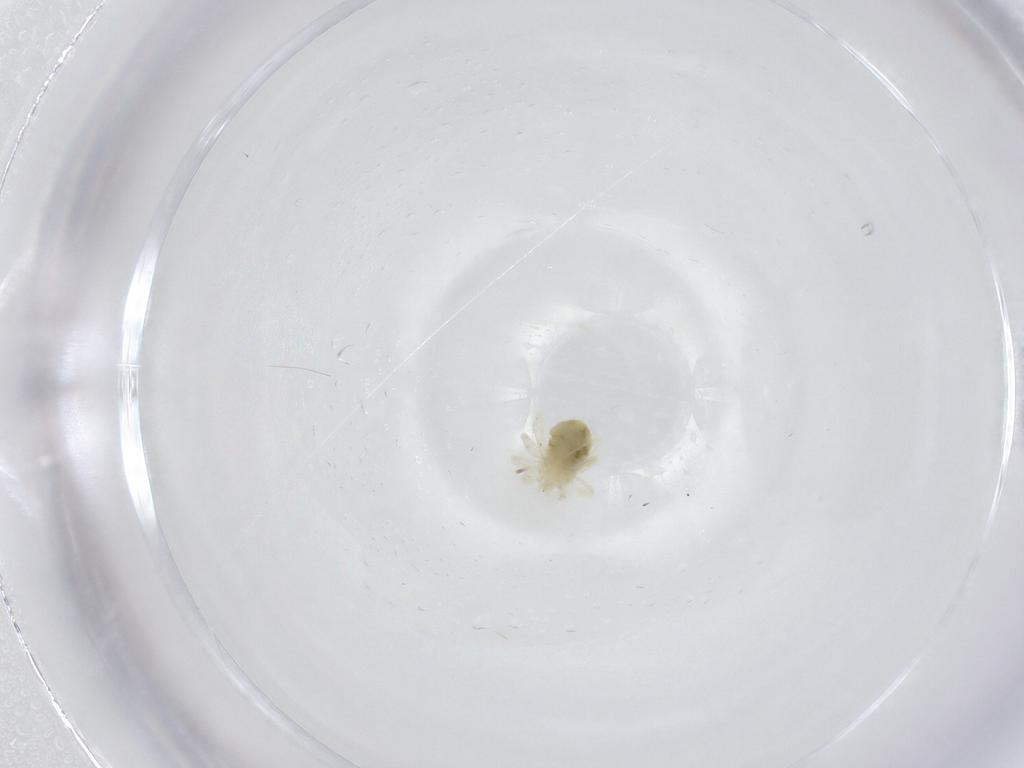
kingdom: Animalia
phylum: Arthropoda
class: Arachnida
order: Trombidiformes
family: Anystidae
